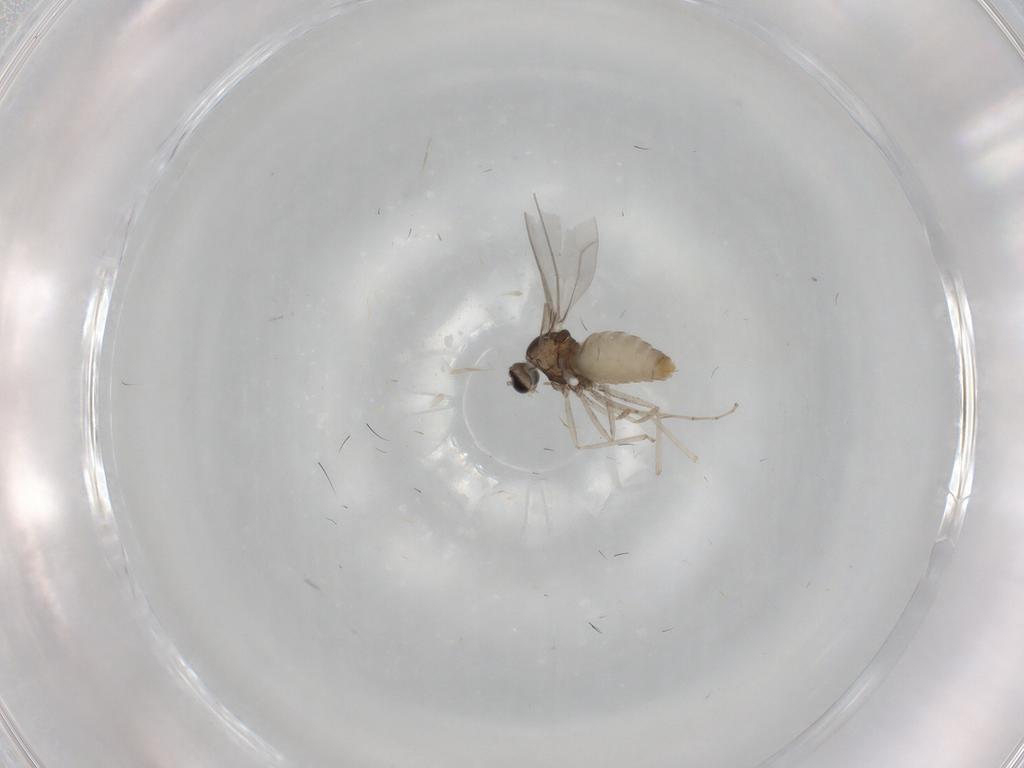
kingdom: Animalia
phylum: Arthropoda
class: Insecta
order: Diptera
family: Cecidomyiidae
